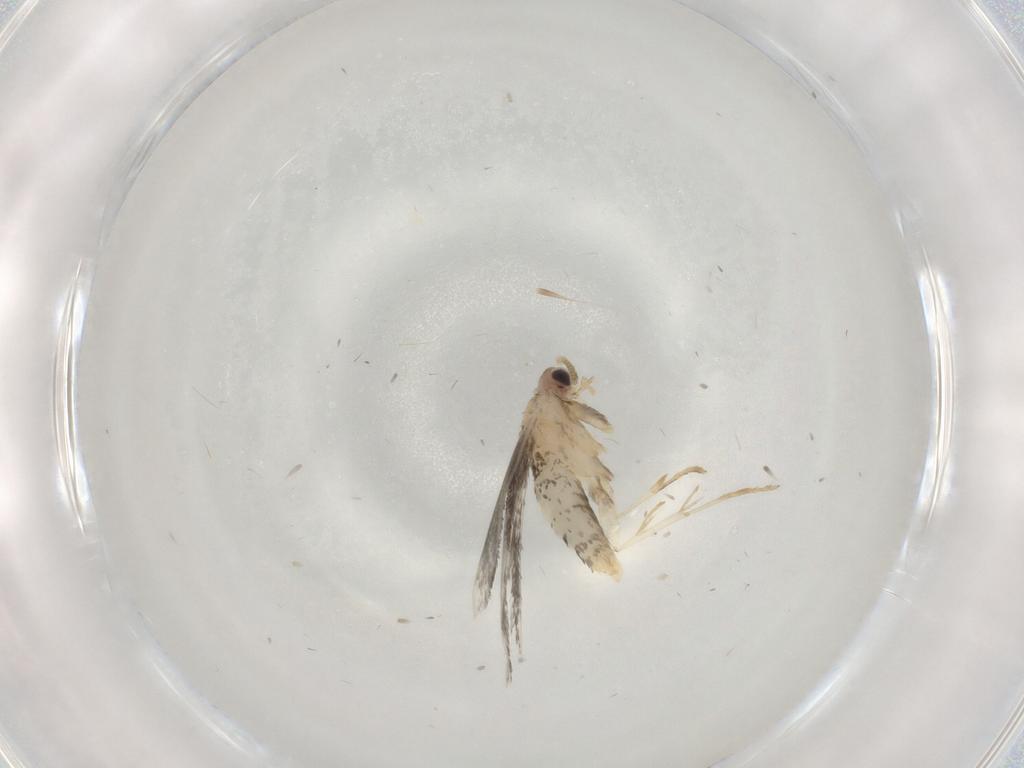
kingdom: Animalia
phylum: Arthropoda
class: Insecta
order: Lepidoptera
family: Tineidae
